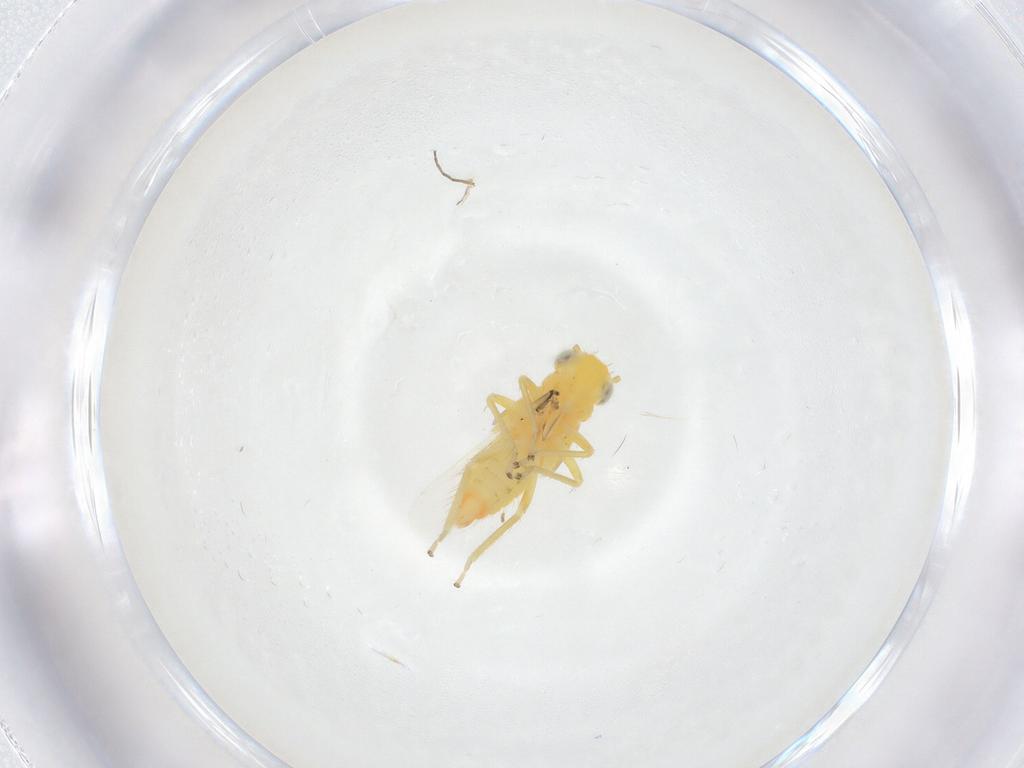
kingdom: Animalia
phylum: Arthropoda
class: Insecta
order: Hemiptera
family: Cicadellidae
